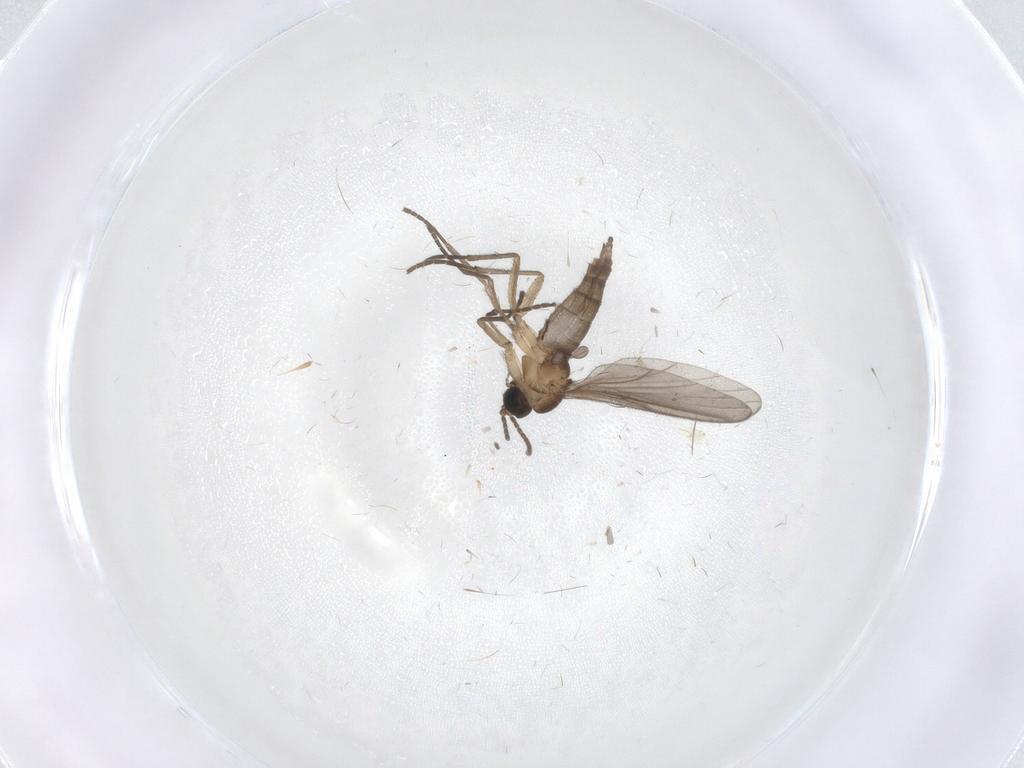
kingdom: Animalia
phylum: Arthropoda
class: Insecta
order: Diptera
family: Sciaridae
